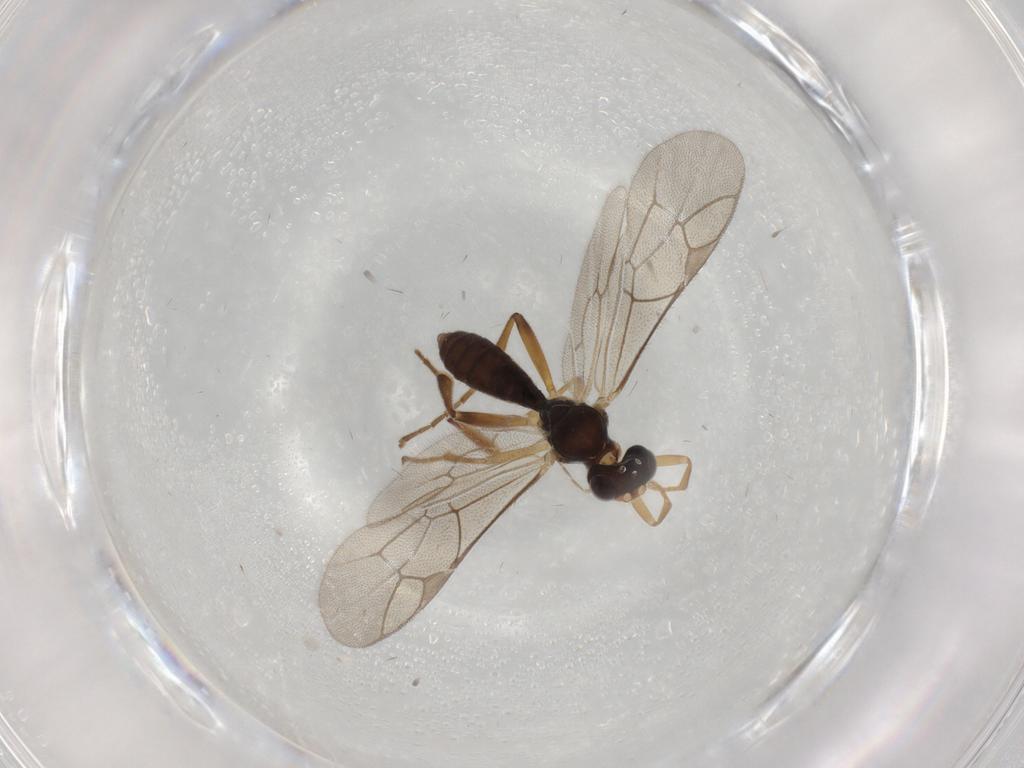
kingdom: Animalia
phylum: Arthropoda
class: Insecta
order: Hymenoptera
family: Ichneumonidae
